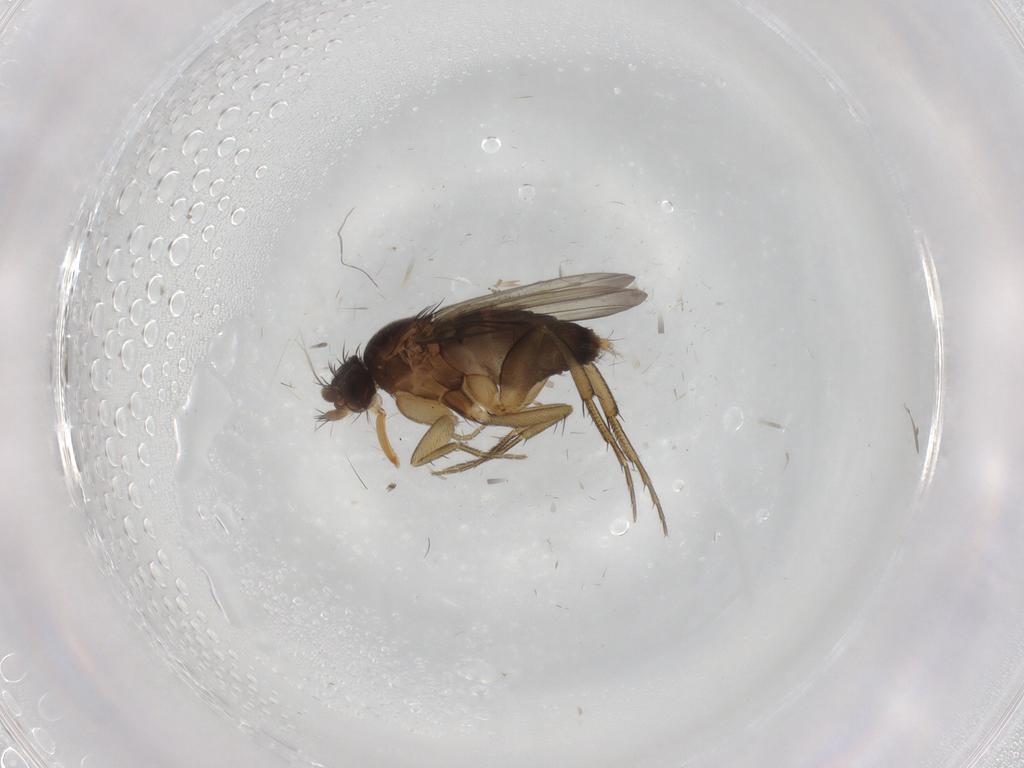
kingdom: Animalia
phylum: Arthropoda
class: Insecta
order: Diptera
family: Phoridae
